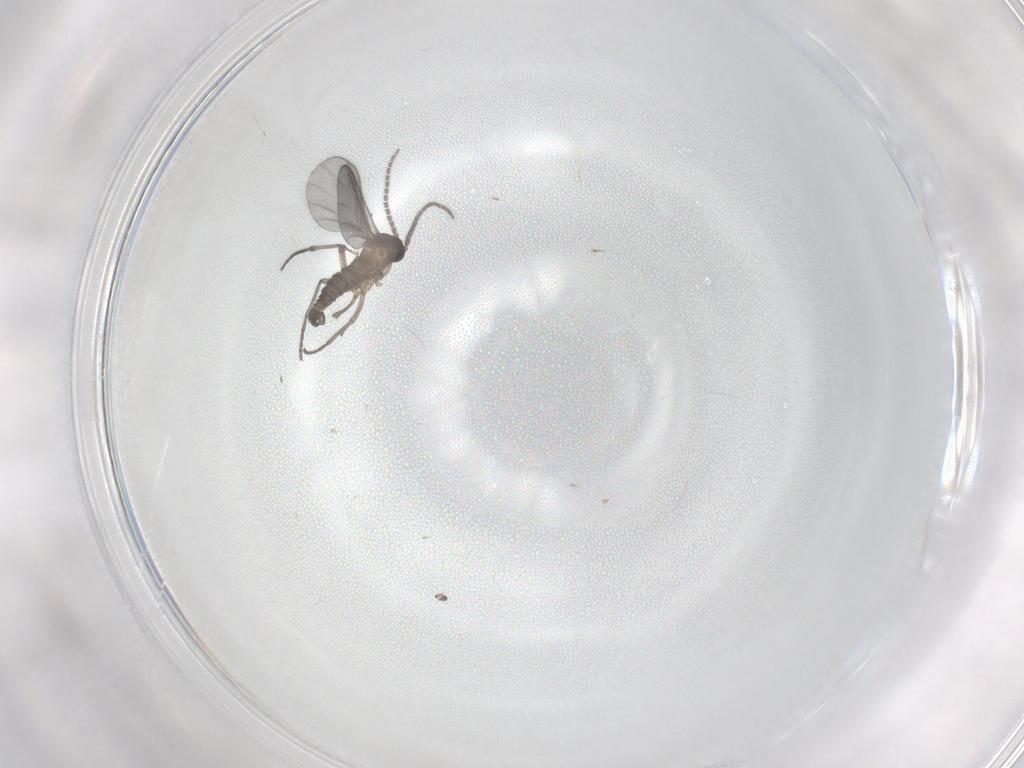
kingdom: Animalia
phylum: Arthropoda
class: Insecta
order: Diptera
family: Sciaridae
